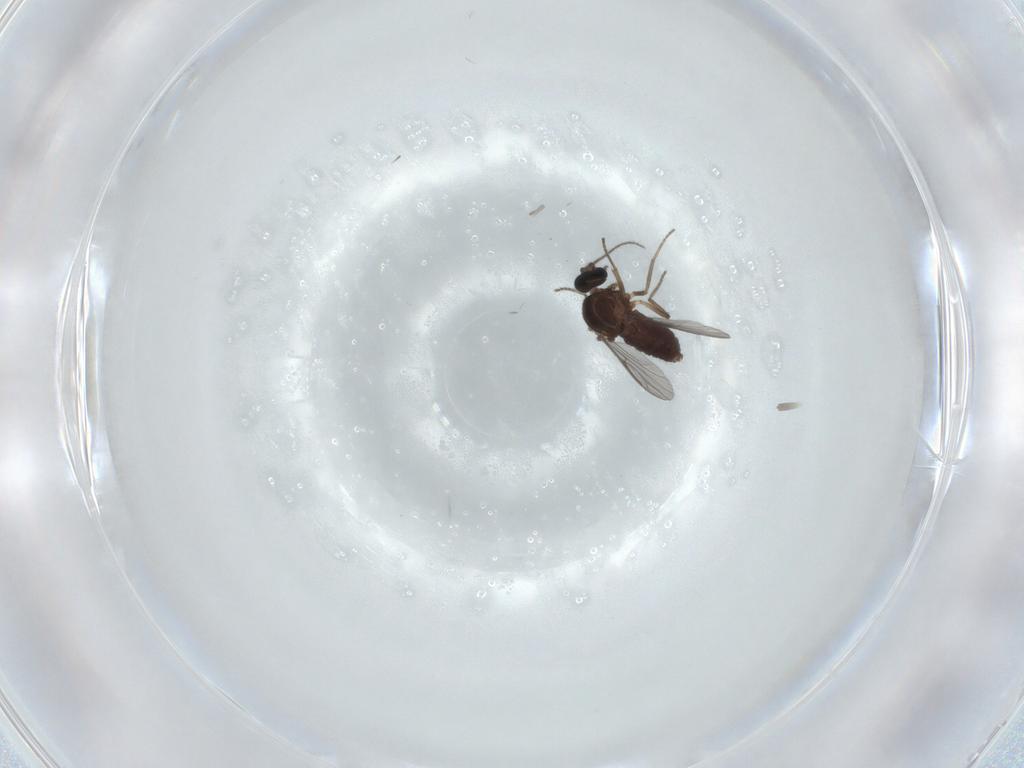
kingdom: Animalia
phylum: Arthropoda
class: Insecta
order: Diptera
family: Ceratopogonidae
